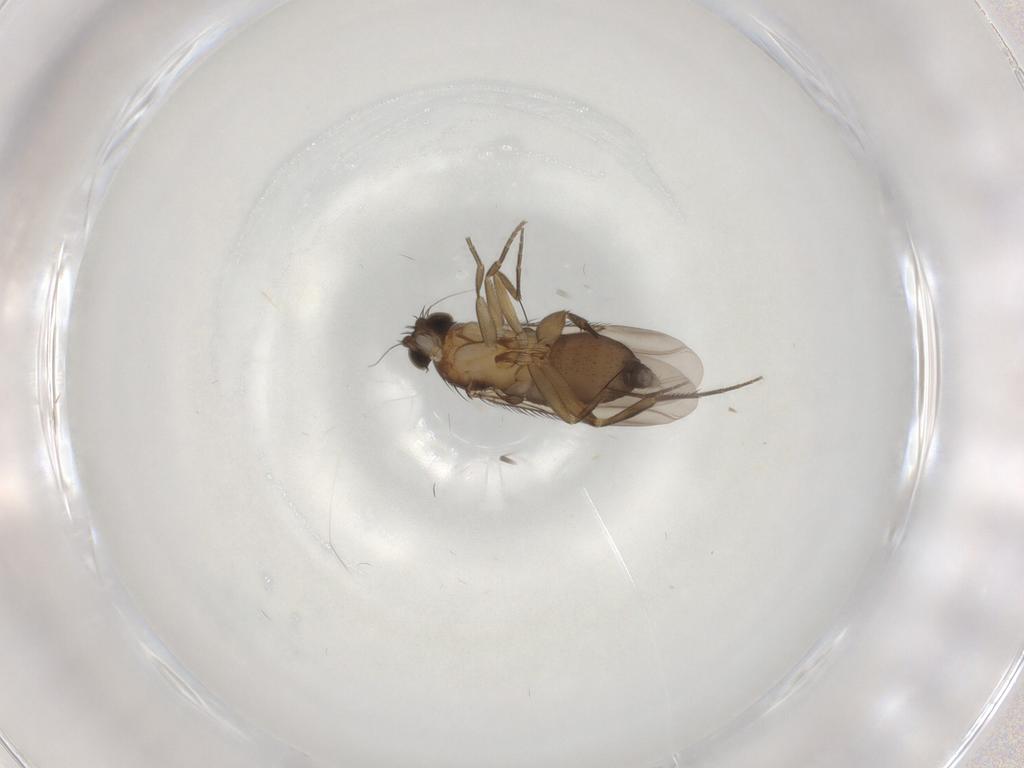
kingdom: Animalia
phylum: Arthropoda
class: Insecta
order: Diptera
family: Phoridae
